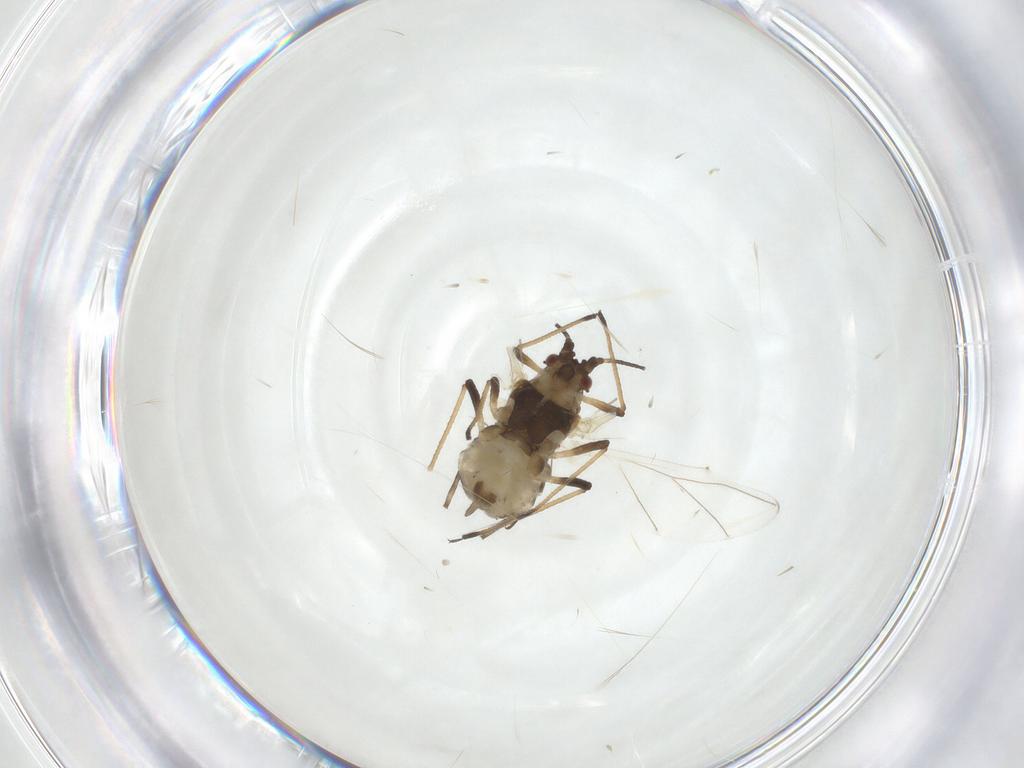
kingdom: Animalia
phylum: Arthropoda
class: Insecta
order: Hemiptera
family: Aphididae
